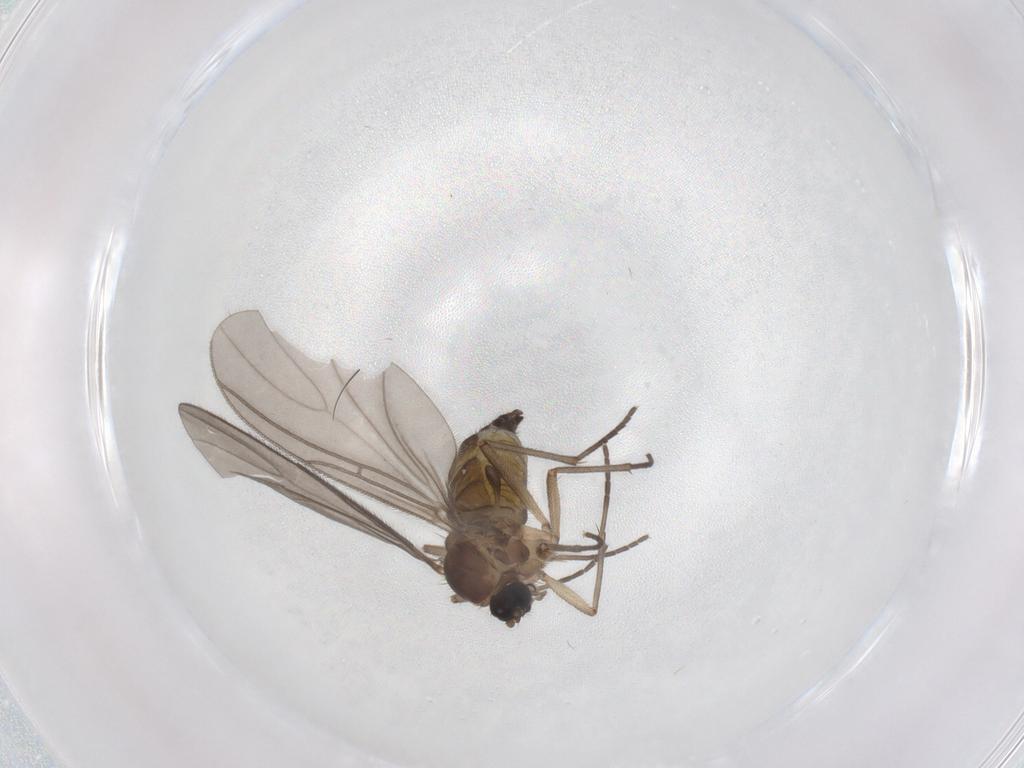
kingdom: Animalia
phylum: Arthropoda
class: Insecta
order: Diptera
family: Sciaridae
